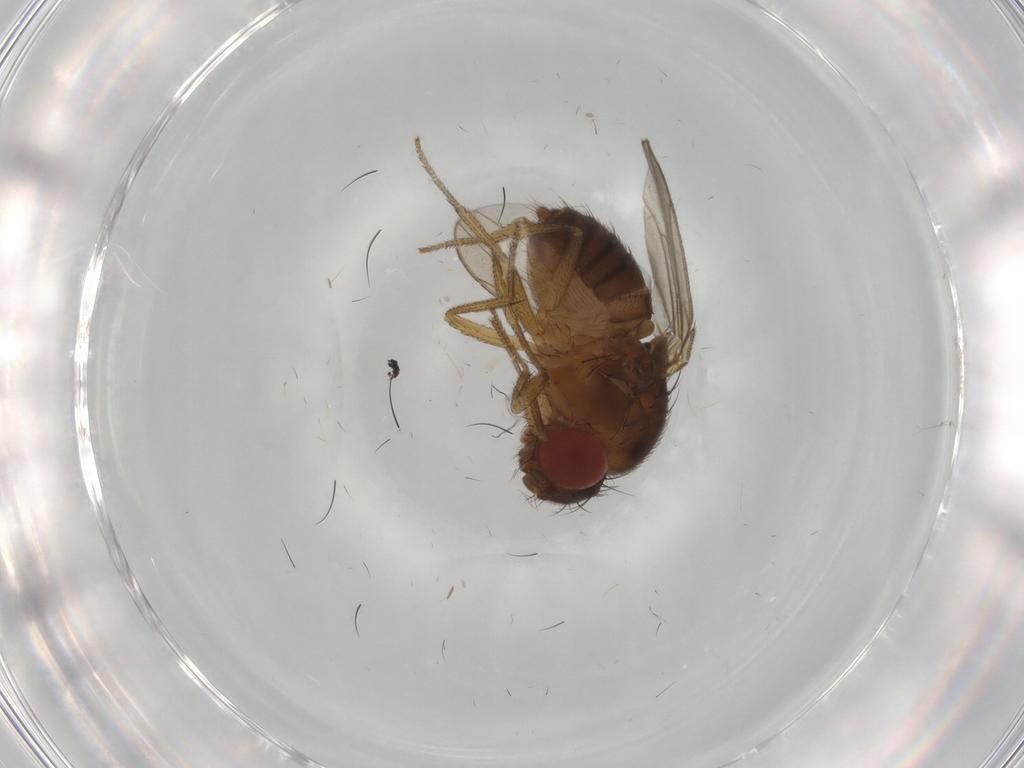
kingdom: Animalia
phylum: Arthropoda
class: Insecta
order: Diptera
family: Drosophilidae
